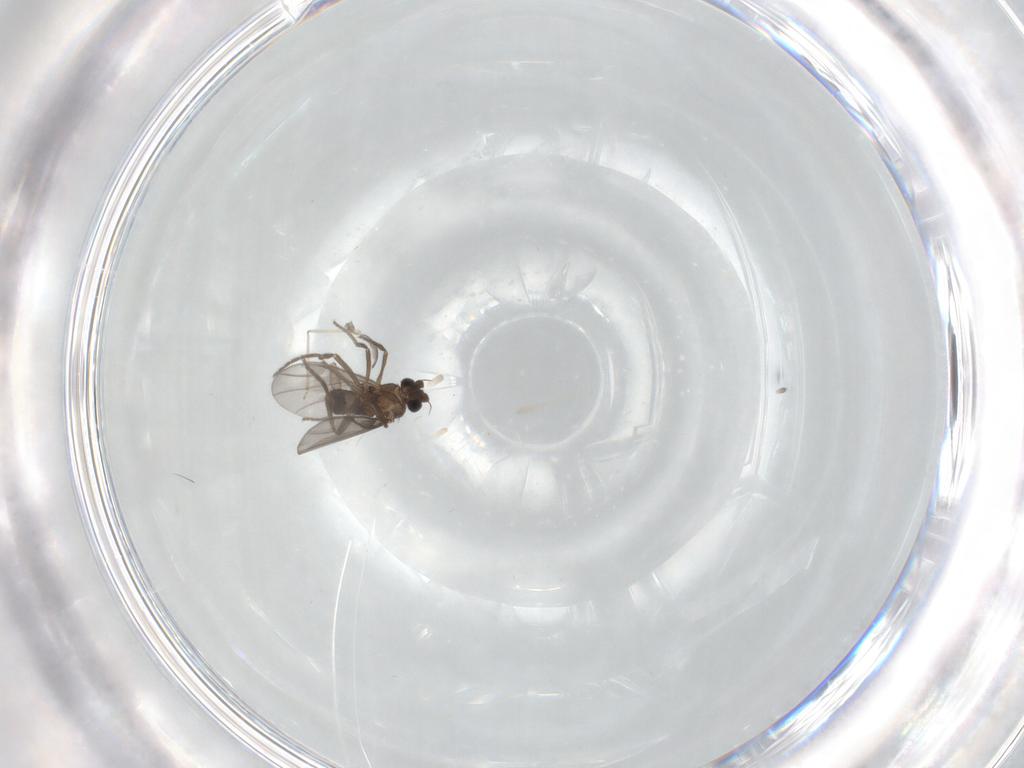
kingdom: Animalia
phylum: Arthropoda
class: Insecta
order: Diptera
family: Phoridae
